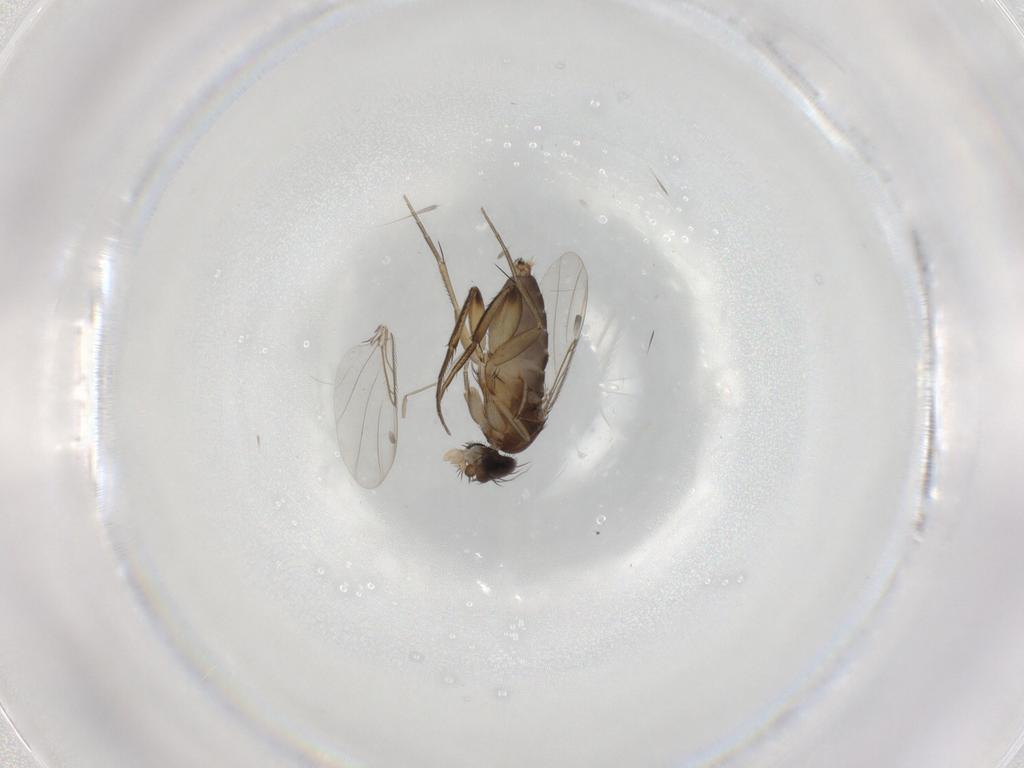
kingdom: Animalia
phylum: Arthropoda
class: Insecta
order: Diptera
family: Phoridae
